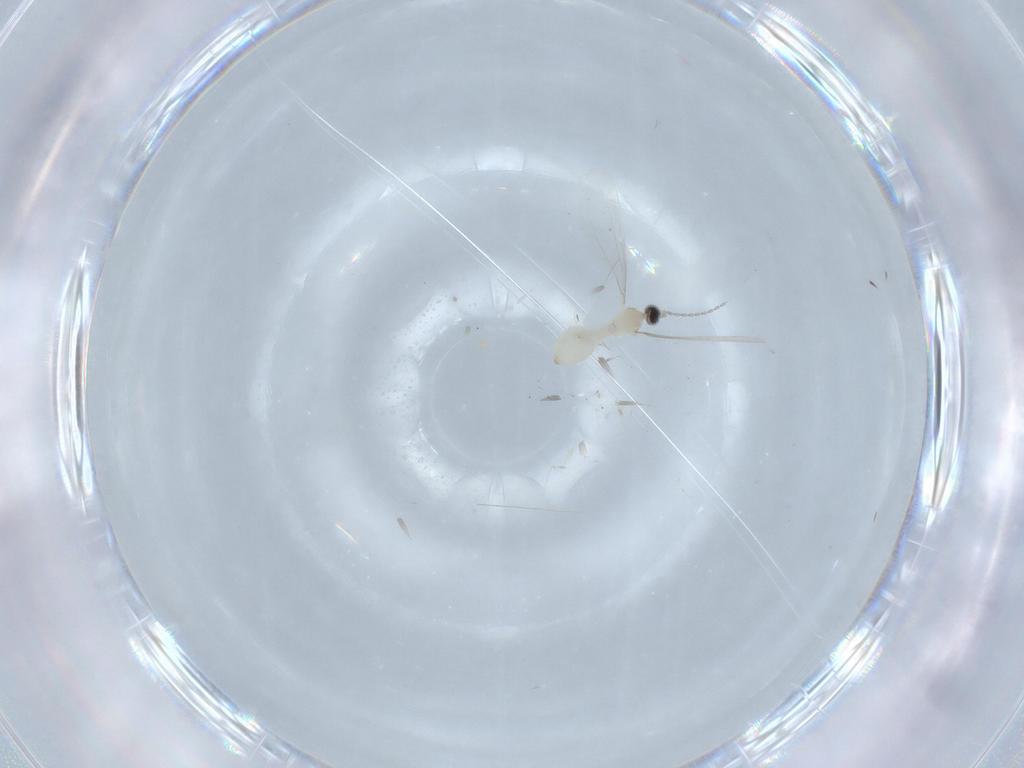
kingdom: Animalia
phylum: Arthropoda
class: Insecta
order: Diptera
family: Cecidomyiidae
